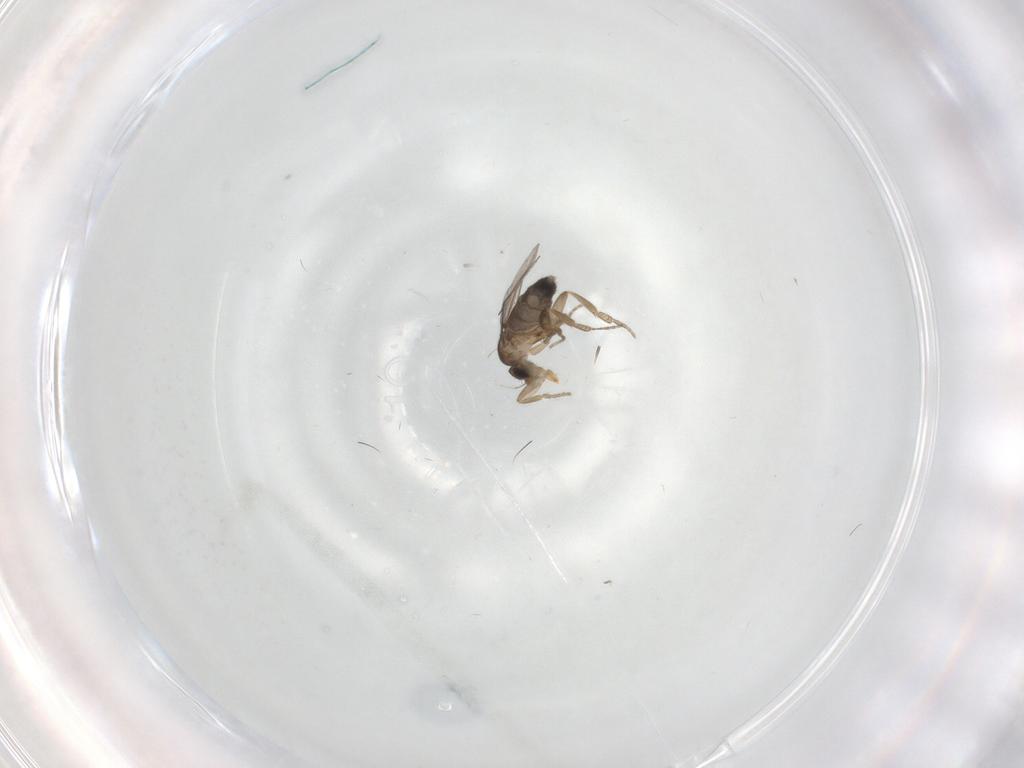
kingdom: Animalia
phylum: Arthropoda
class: Insecta
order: Diptera
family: Phoridae
